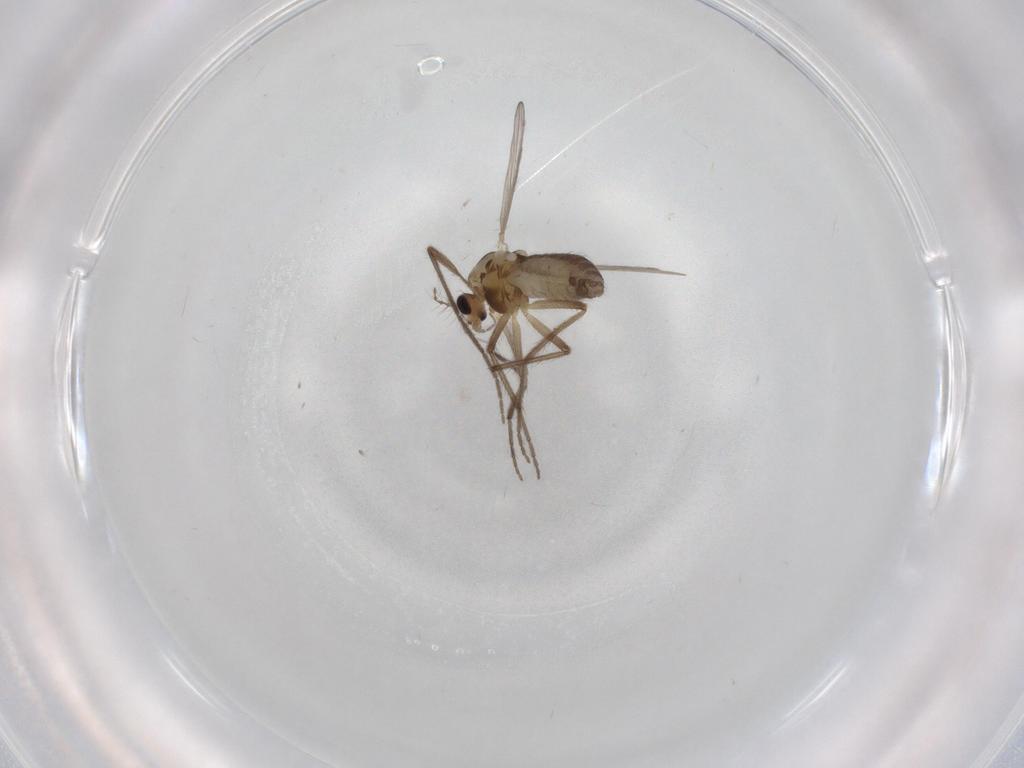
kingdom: Animalia
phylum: Arthropoda
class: Insecta
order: Diptera
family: Chironomidae
